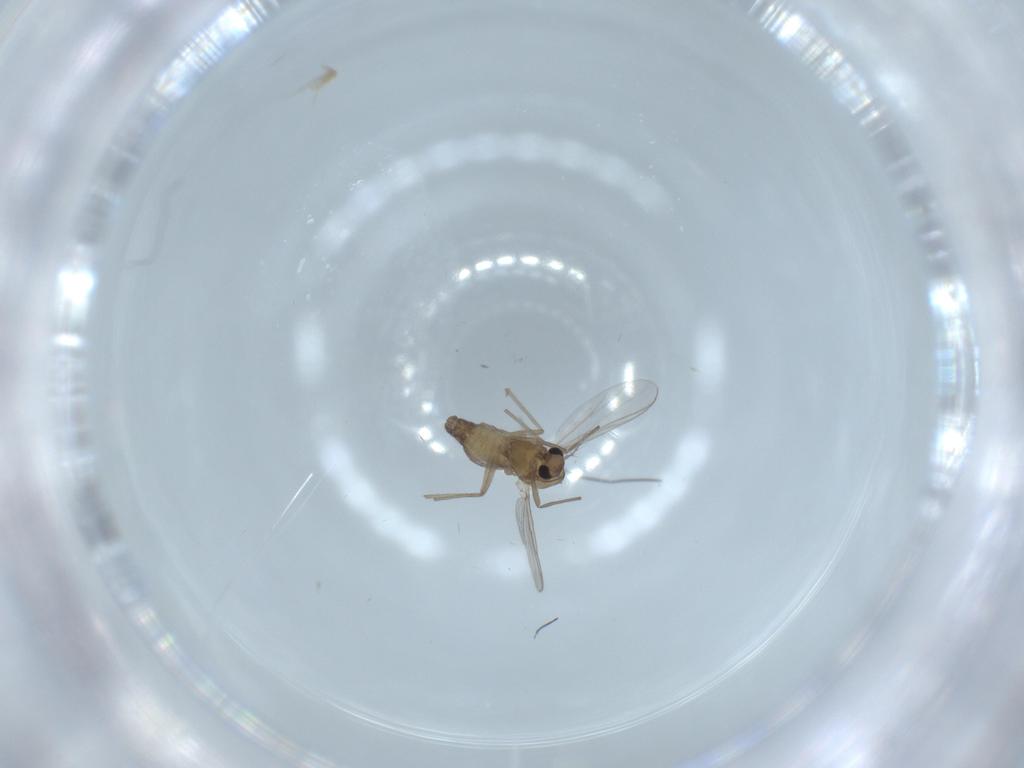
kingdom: Animalia
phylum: Arthropoda
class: Insecta
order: Diptera
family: Chironomidae
